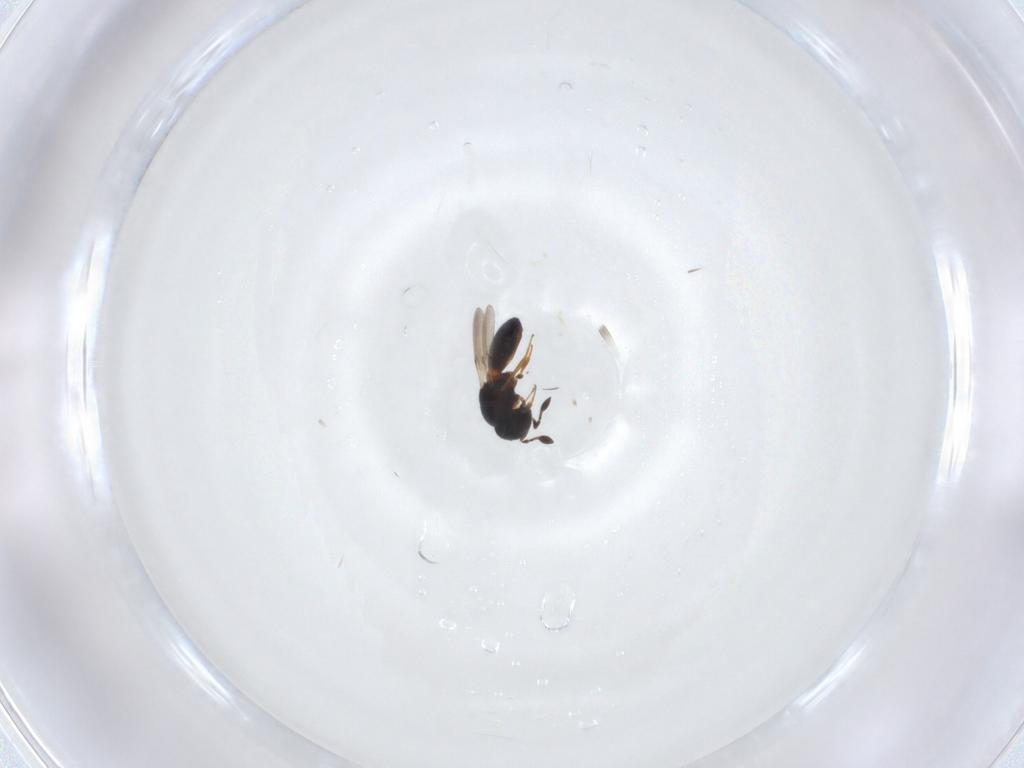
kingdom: Animalia
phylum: Arthropoda
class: Insecta
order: Hymenoptera
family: Scelionidae
